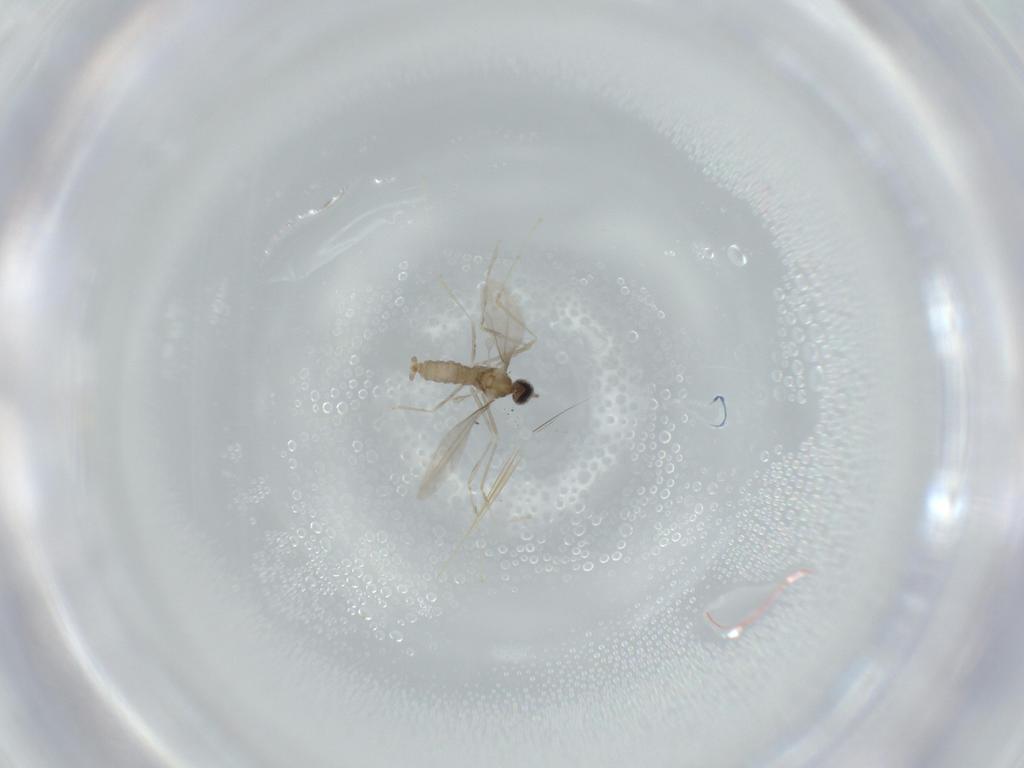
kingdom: Animalia
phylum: Arthropoda
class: Insecta
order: Diptera
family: Cecidomyiidae
